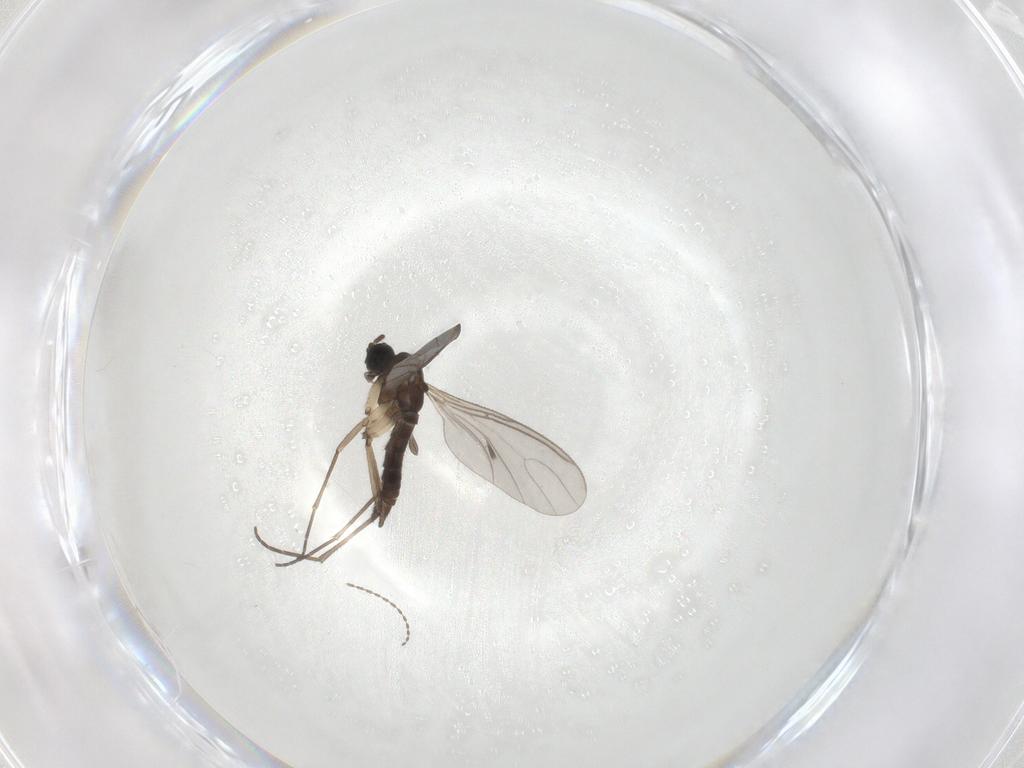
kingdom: Animalia
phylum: Arthropoda
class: Insecta
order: Diptera
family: Sciaridae
